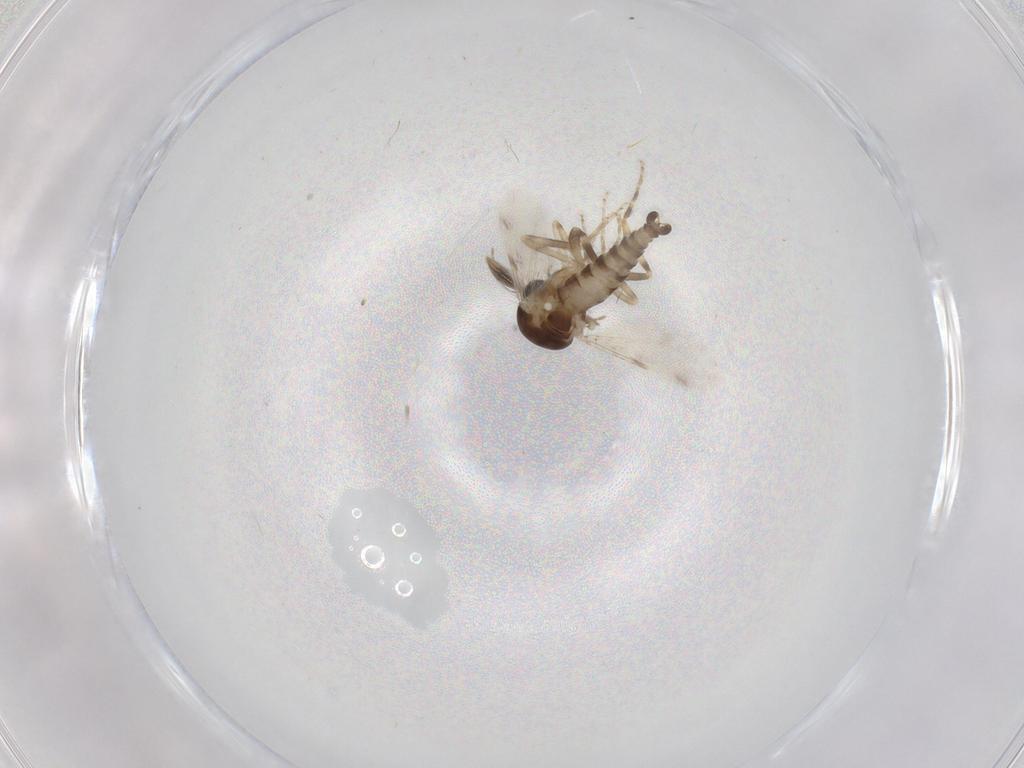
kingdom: Animalia
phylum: Arthropoda
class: Insecta
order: Diptera
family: Ceratopogonidae
